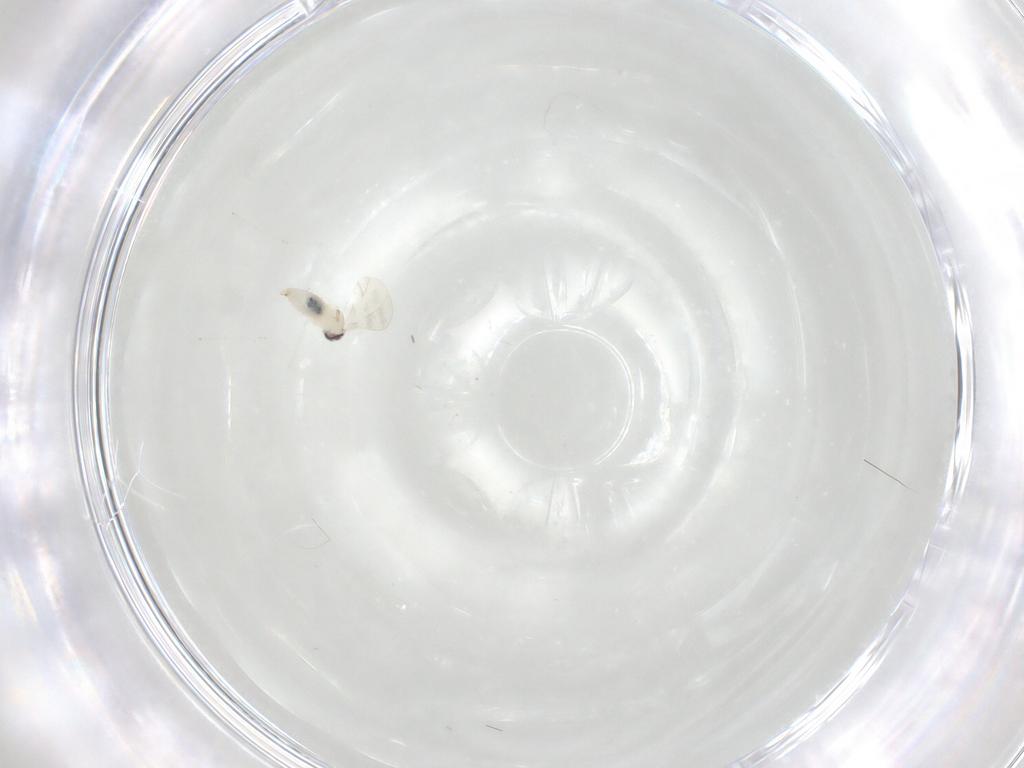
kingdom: Animalia
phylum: Arthropoda
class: Insecta
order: Diptera
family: Cecidomyiidae
